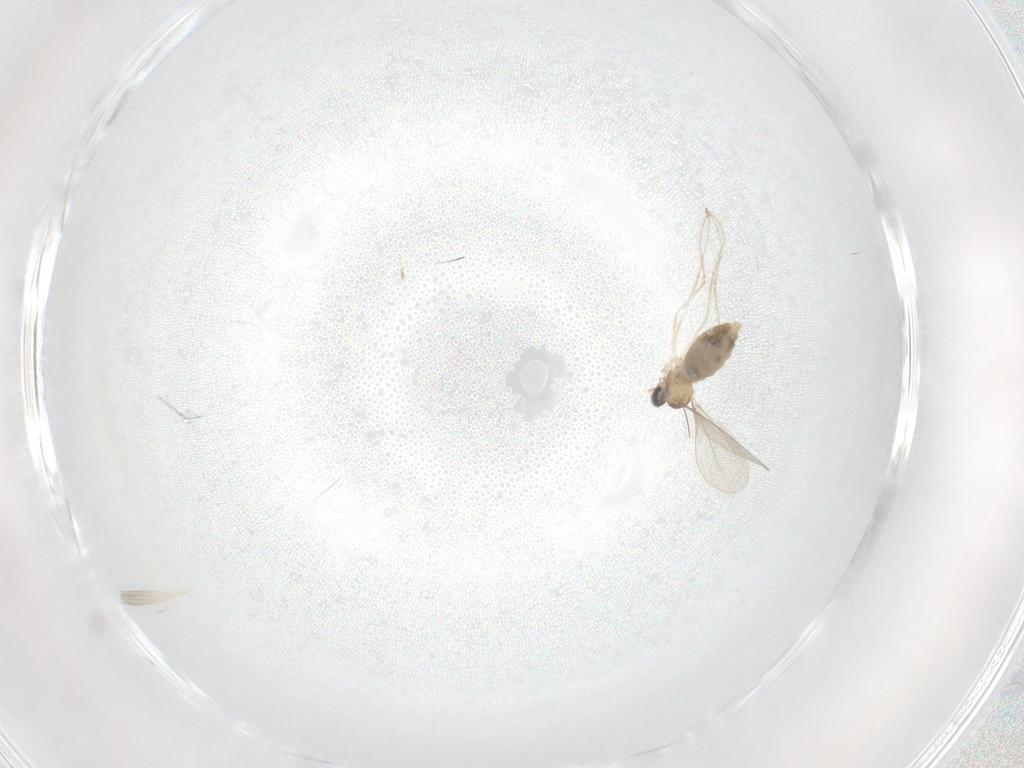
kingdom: Animalia
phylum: Arthropoda
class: Insecta
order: Diptera
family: Cecidomyiidae
